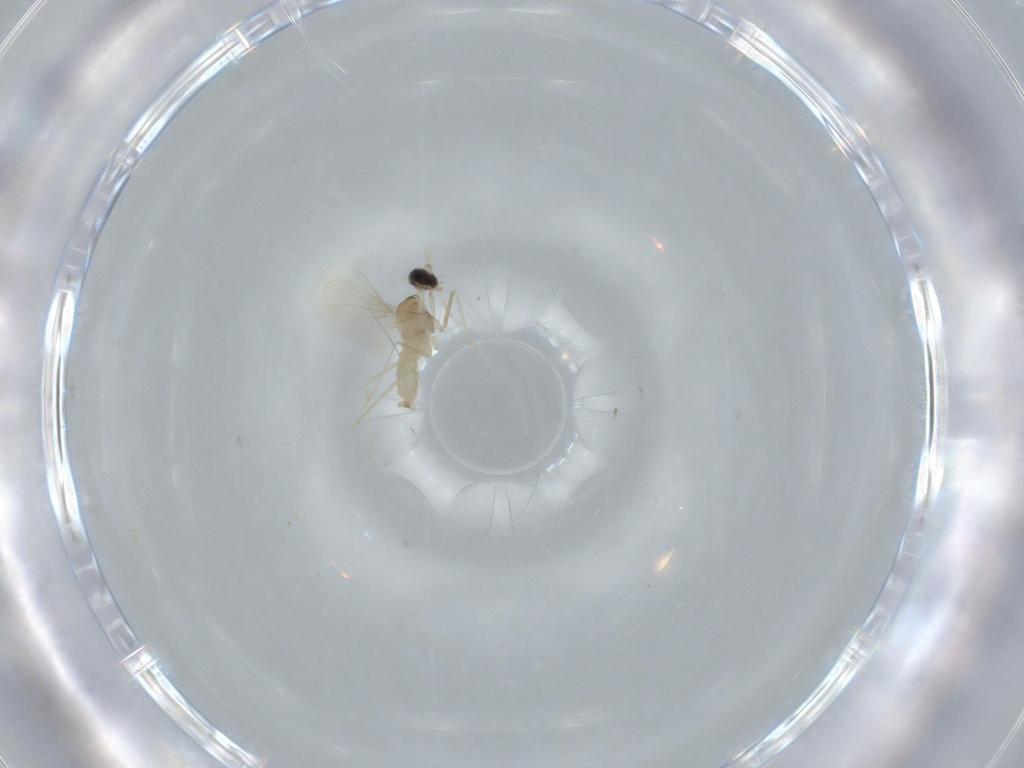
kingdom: Animalia
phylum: Arthropoda
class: Insecta
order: Diptera
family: Cecidomyiidae
